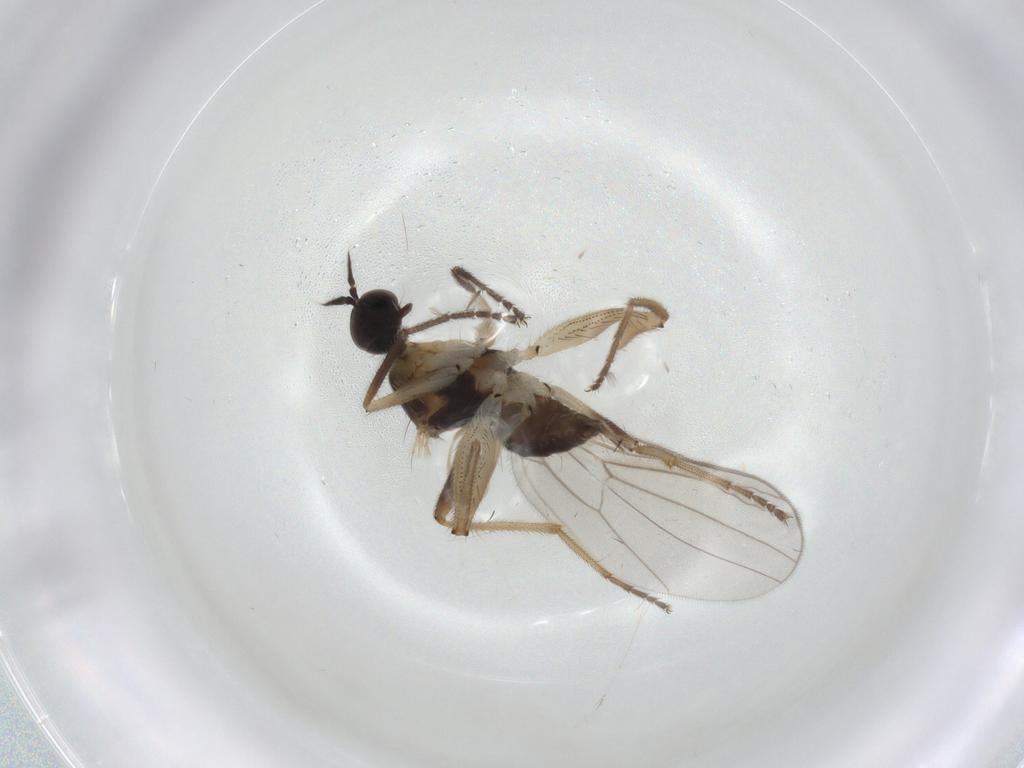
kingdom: Animalia
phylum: Arthropoda
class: Insecta
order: Diptera
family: Hybotidae
